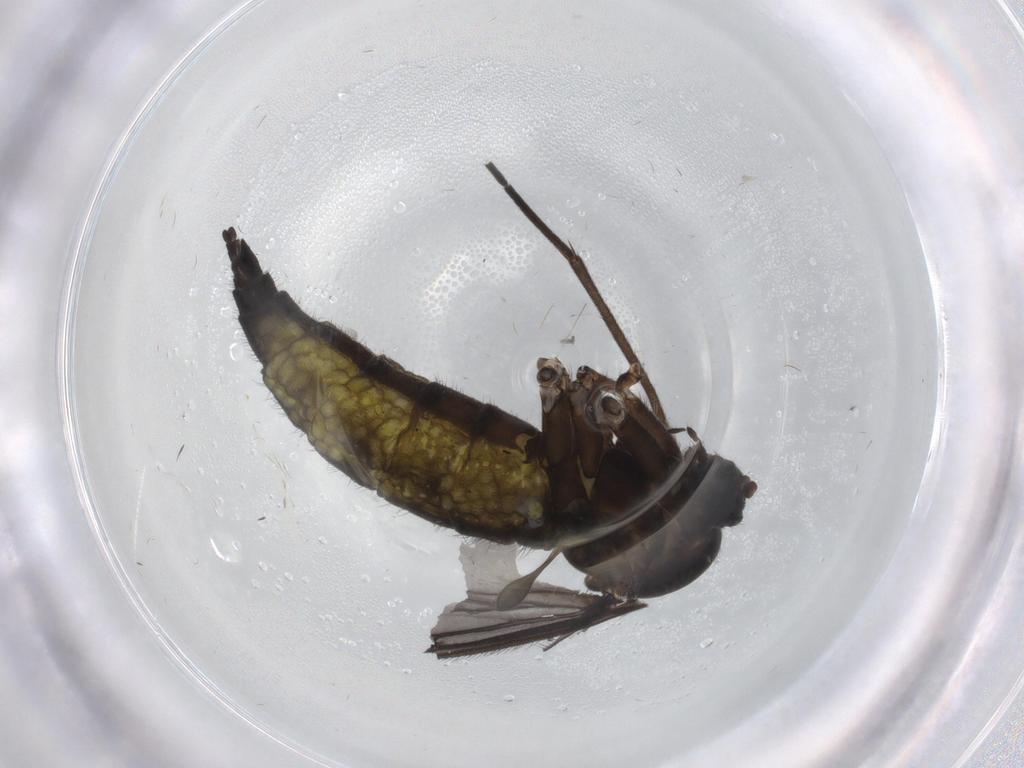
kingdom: Animalia
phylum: Arthropoda
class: Insecta
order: Diptera
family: Sciaridae
